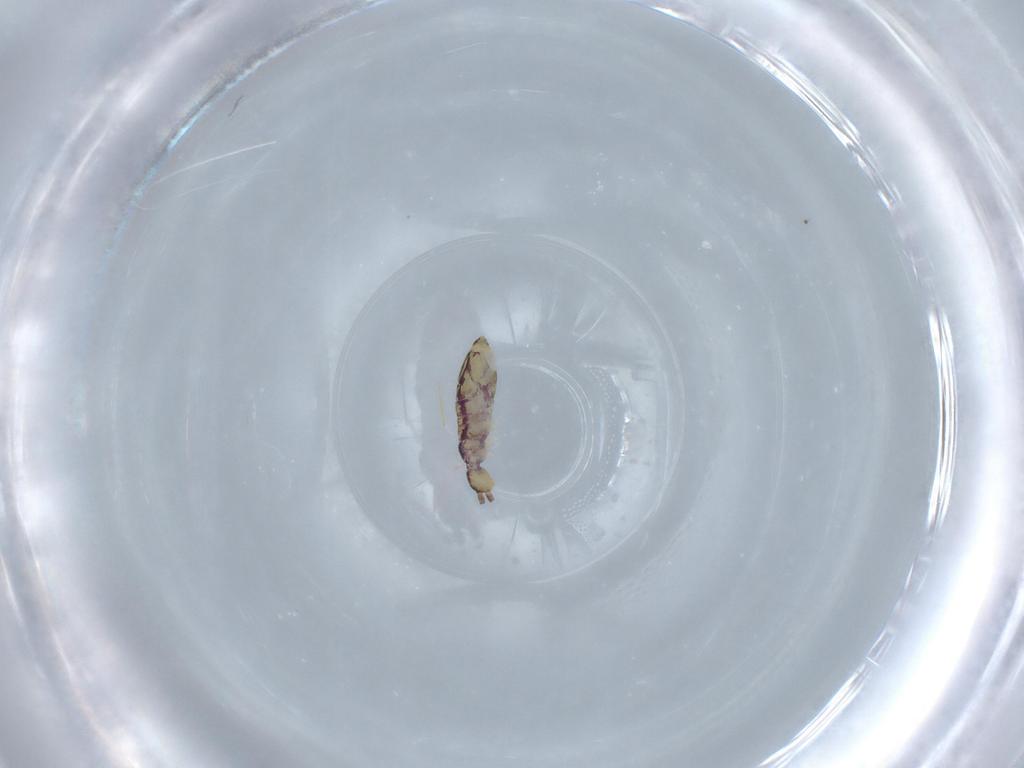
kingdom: Animalia
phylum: Arthropoda
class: Collembola
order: Entomobryomorpha
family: Entomobryidae
